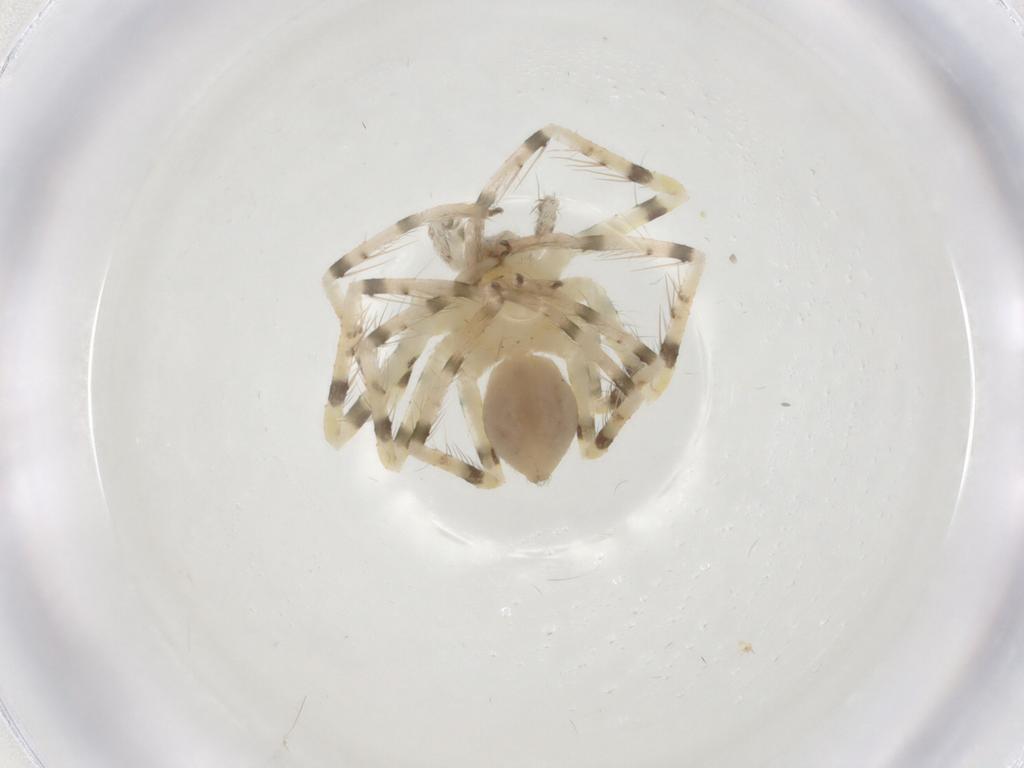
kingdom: Animalia
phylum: Arthropoda
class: Arachnida
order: Araneae
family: Sparassidae
